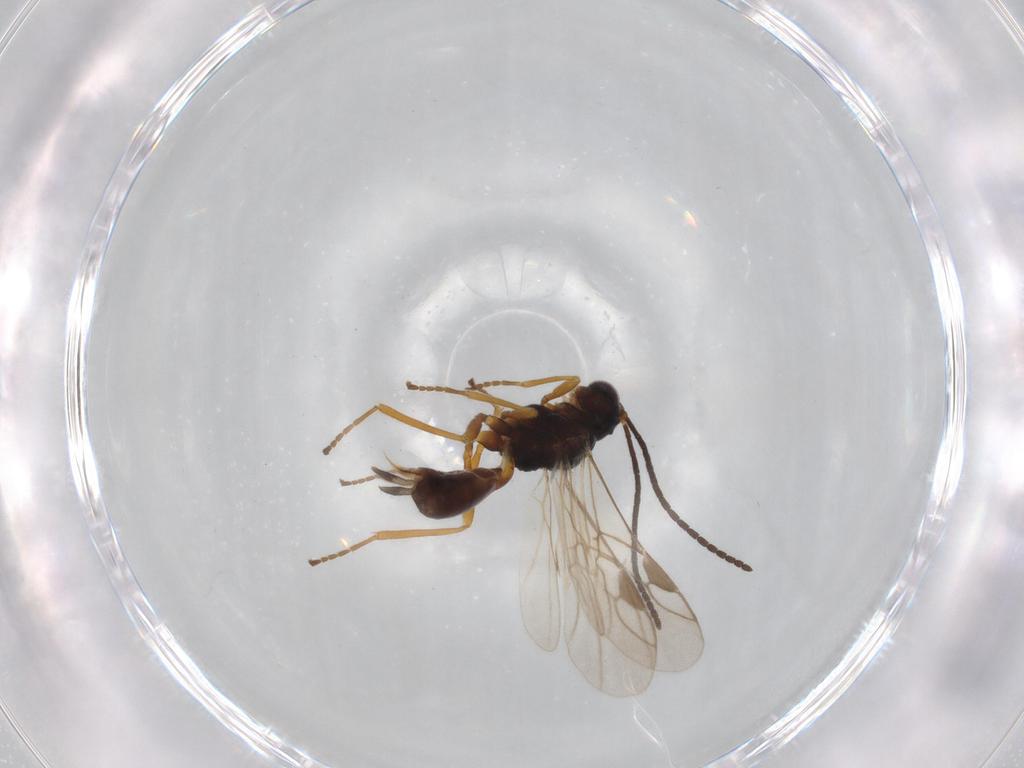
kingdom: Animalia
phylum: Arthropoda
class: Insecta
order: Hymenoptera
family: Braconidae
